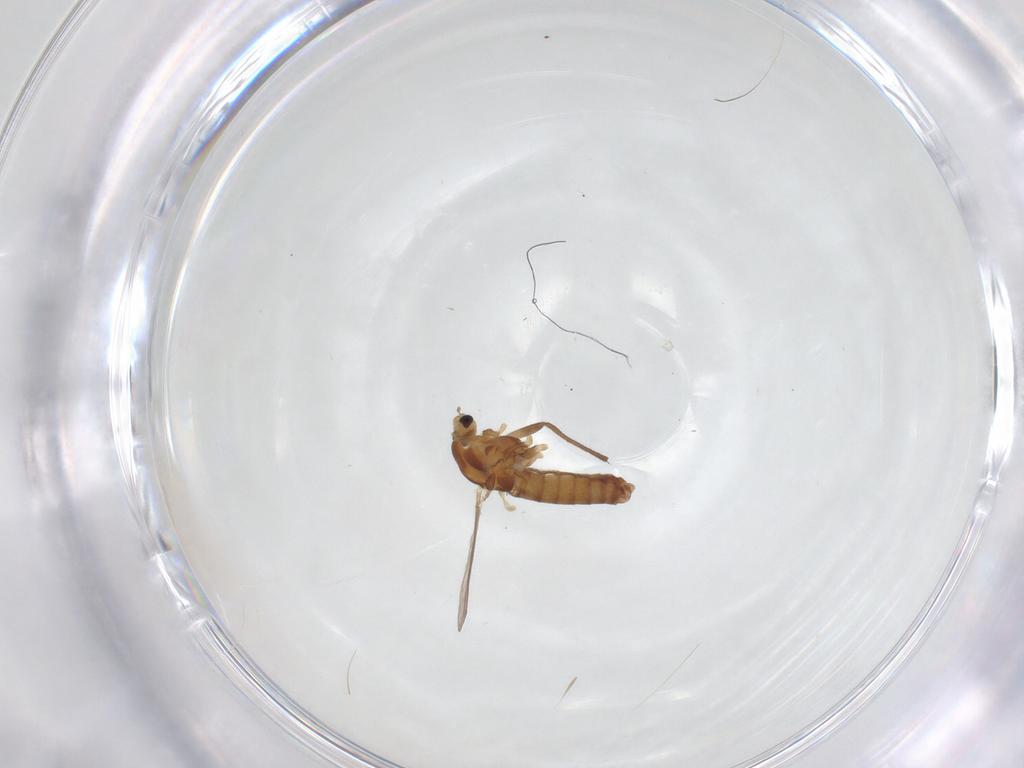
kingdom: Animalia
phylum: Arthropoda
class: Insecta
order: Diptera
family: Chironomidae
